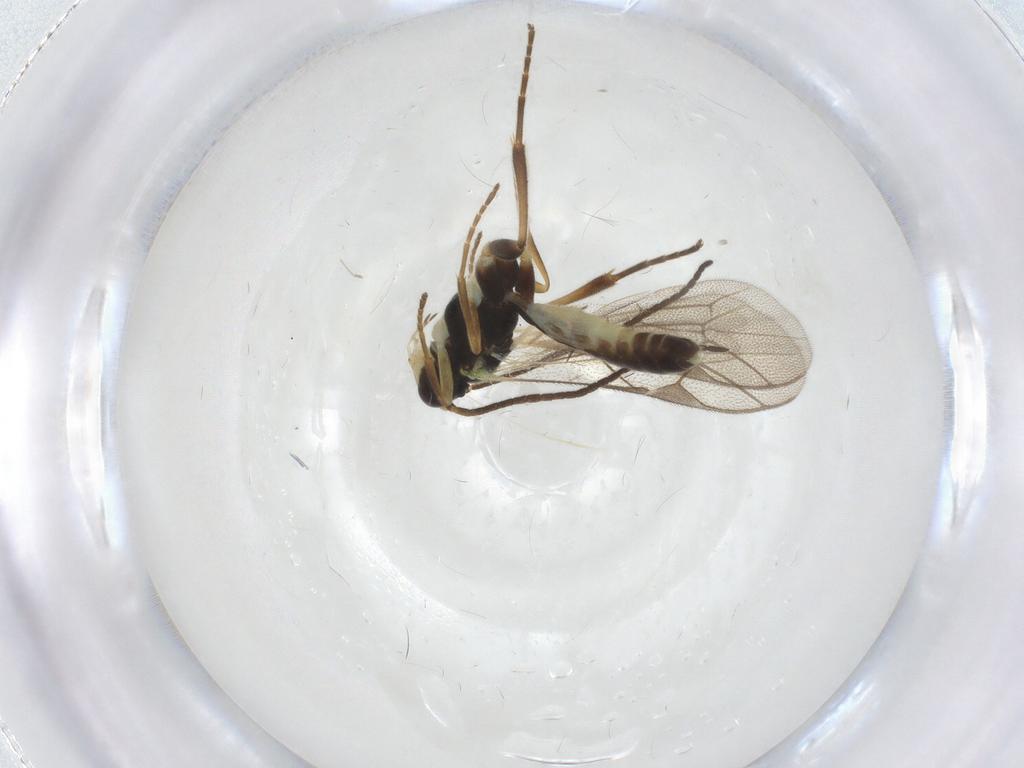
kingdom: Animalia
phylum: Arthropoda
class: Insecta
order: Hymenoptera
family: Ichneumonidae
